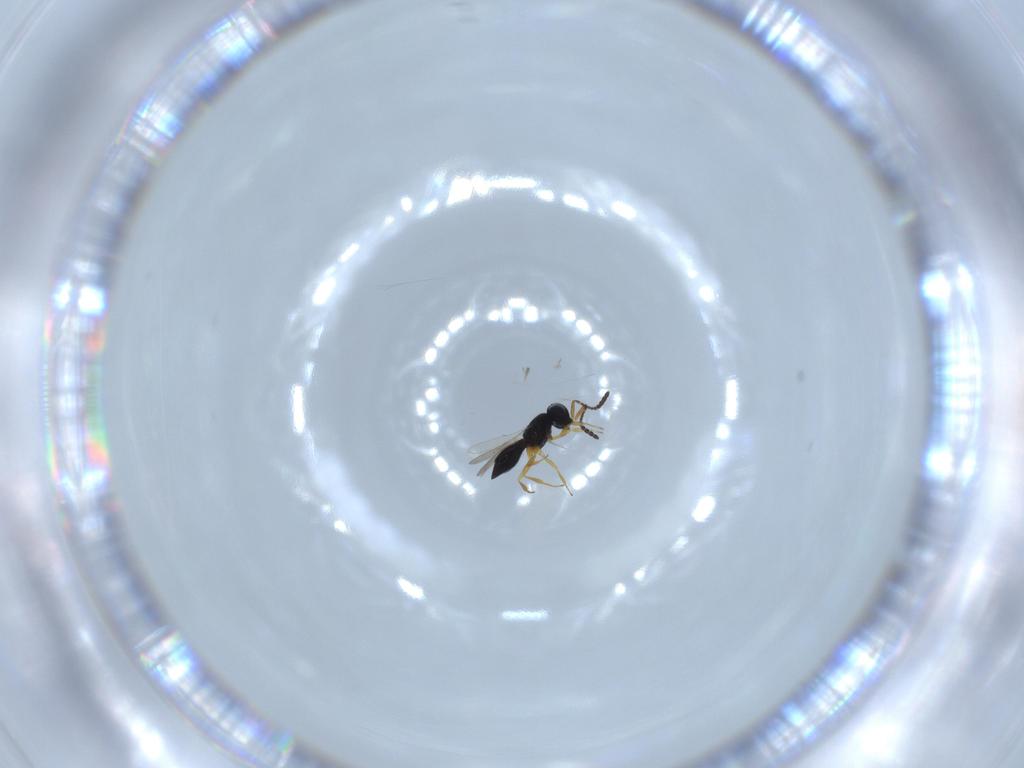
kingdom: Animalia
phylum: Arthropoda
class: Insecta
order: Hymenoptera
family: Scelionidae
